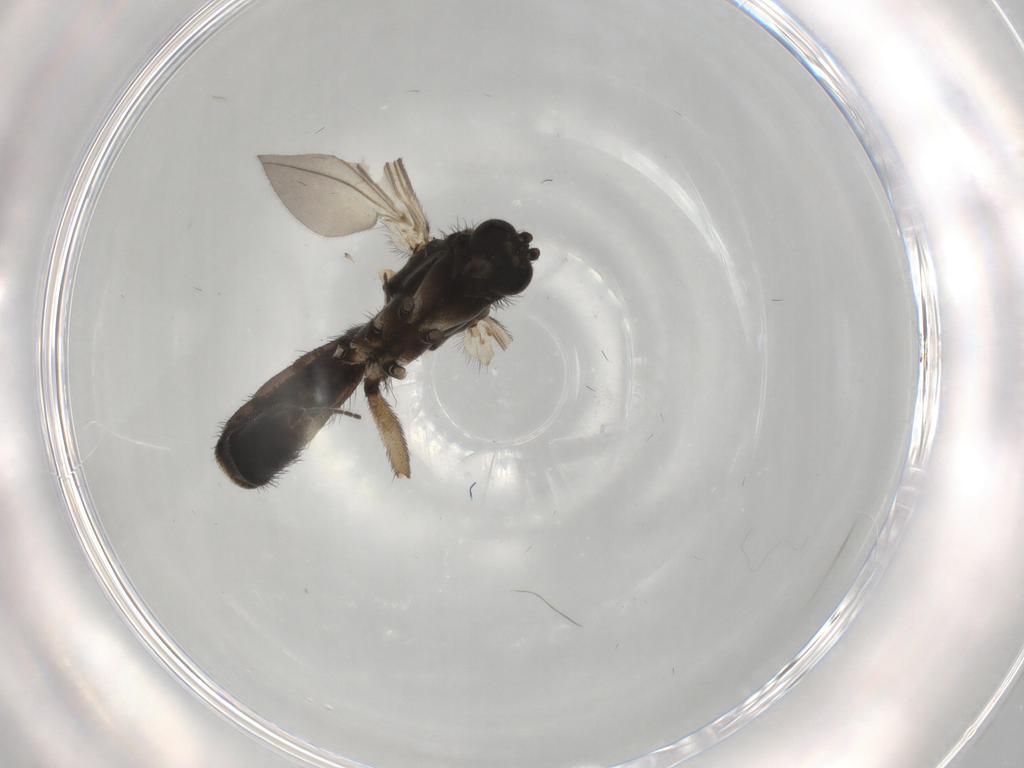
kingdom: Animalia
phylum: Arthropoda
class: Insecta
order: Diptera
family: Sciaridae
